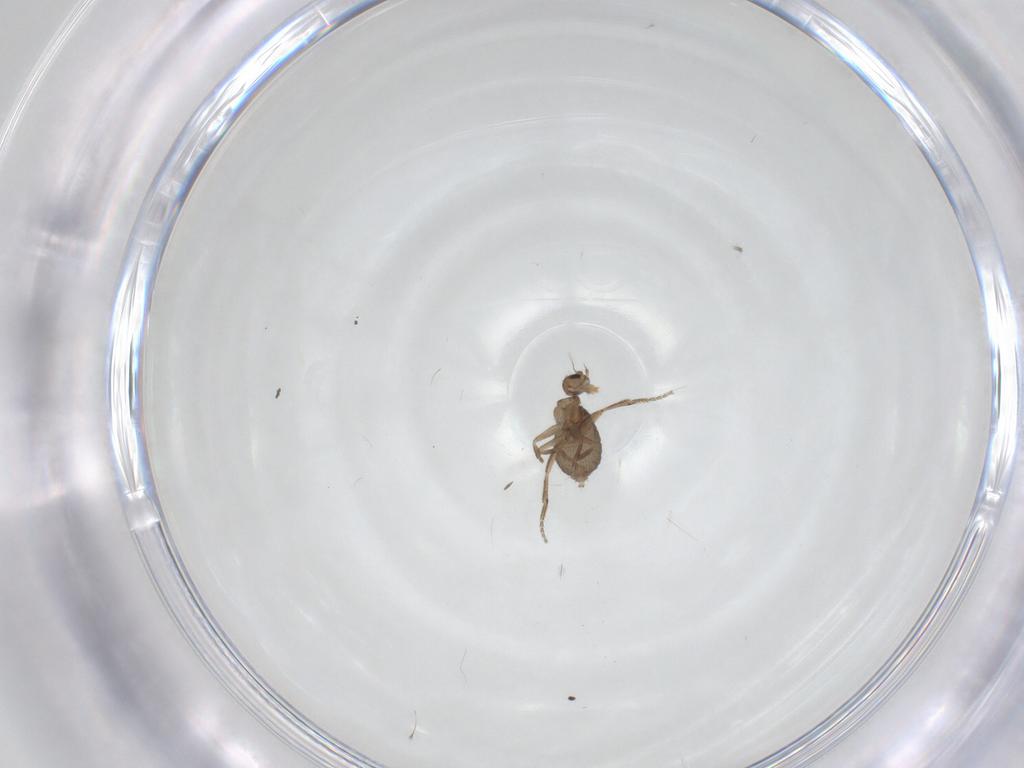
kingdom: Animalia
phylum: Arthropoda
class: Insecta
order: Diptera
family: Phoridae
